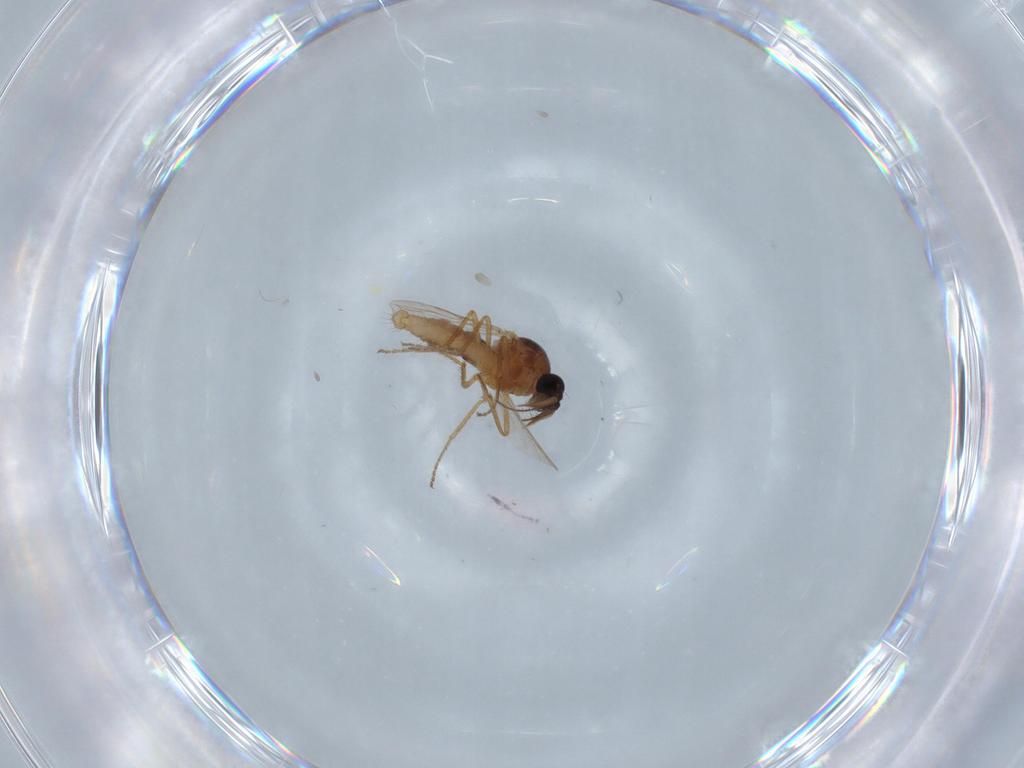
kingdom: Animalia
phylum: Arthropoda
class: Insecta
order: Diptera
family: Ceratopogonidae
